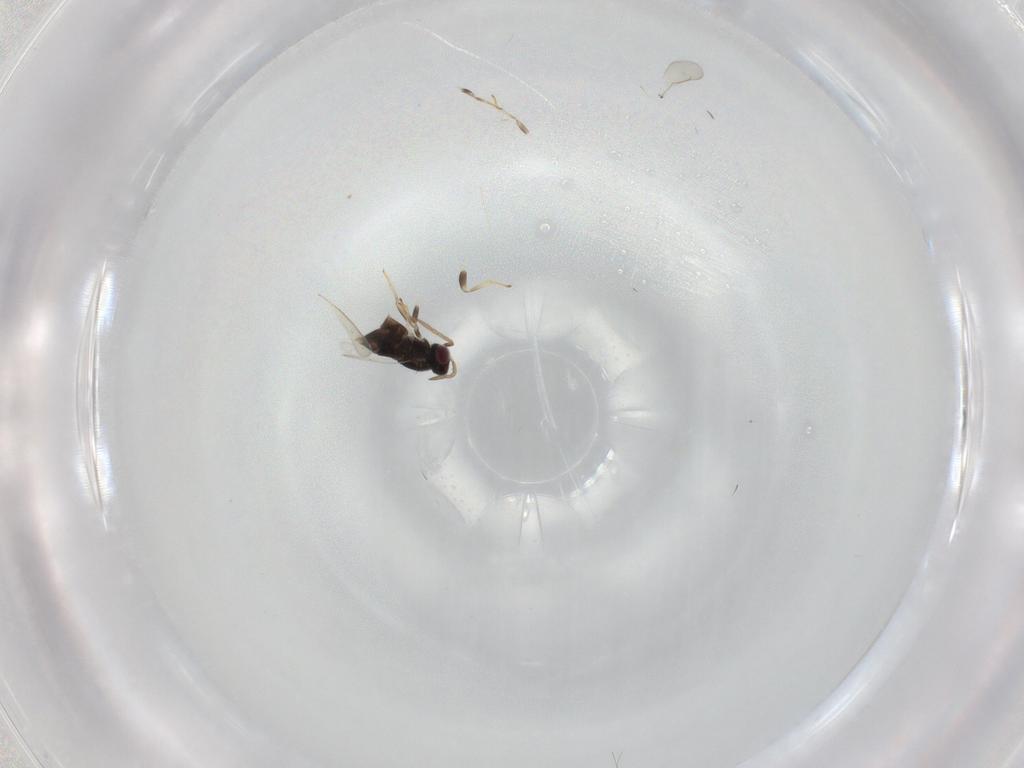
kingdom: Animalia
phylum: Arthropoda
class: Insecta
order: Hymenoptera
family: Aphelinidae
